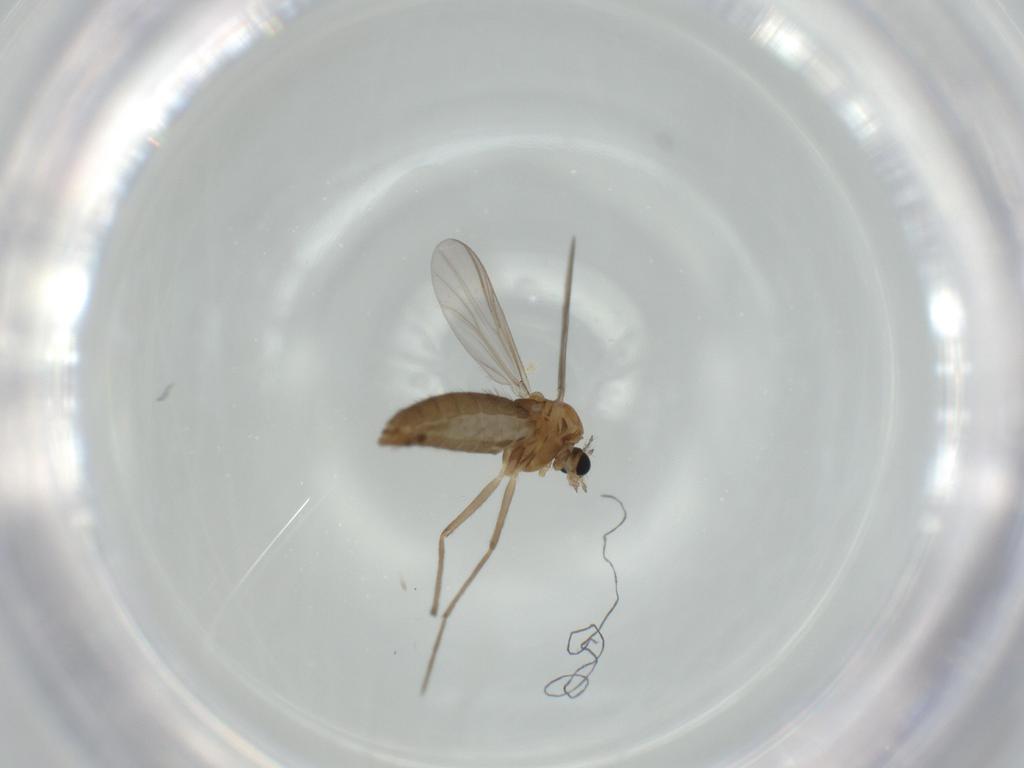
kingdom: Animalia
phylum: Arthropoda
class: Insecta
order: Diptera
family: Chironomidae
